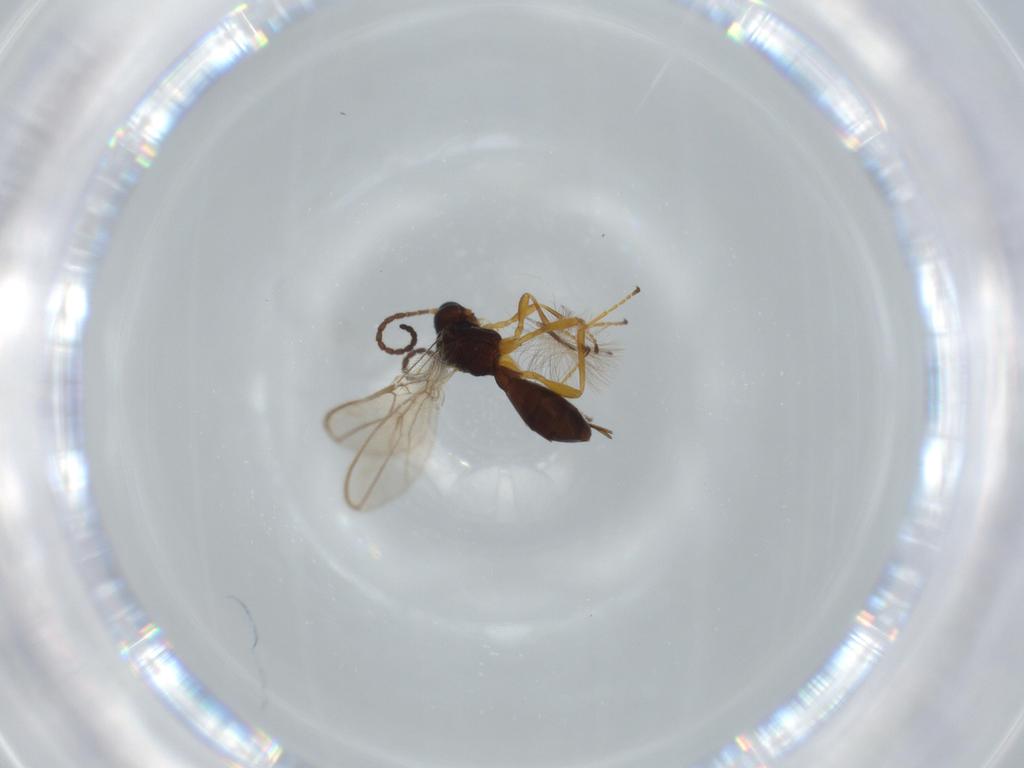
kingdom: Animalia
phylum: Arthropoda
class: Insecta
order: Hymenoptera
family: Braconidae
